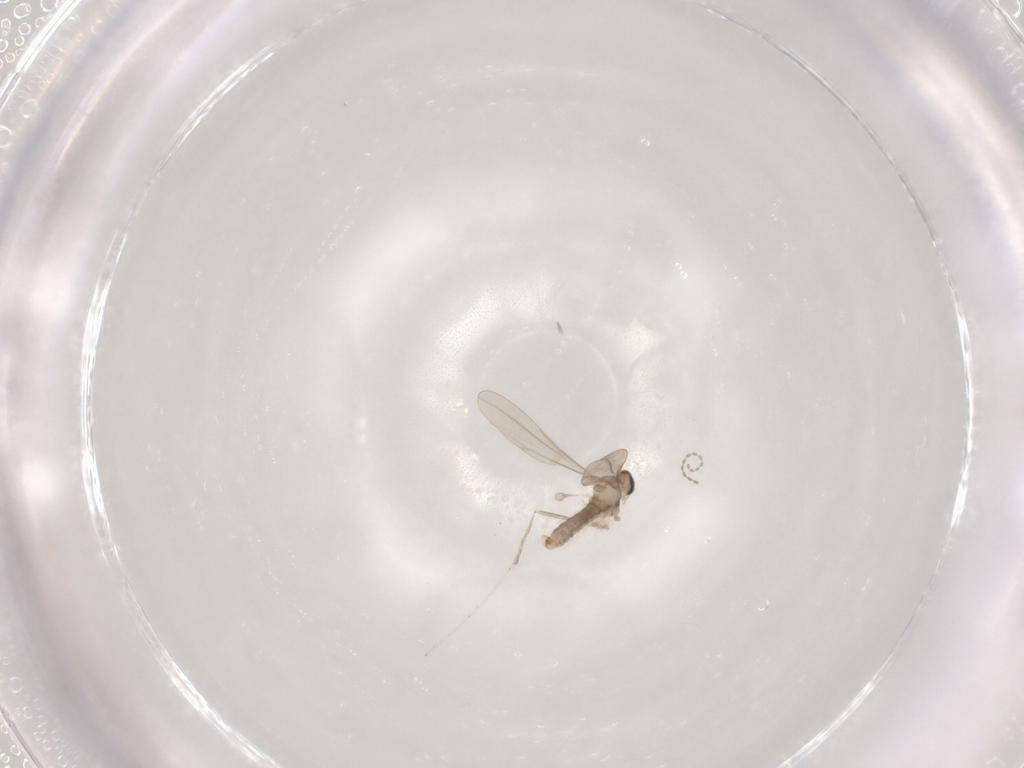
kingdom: Animalia
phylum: Arthropoda
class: Insecta
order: Diptera
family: Cecidomyiidae
